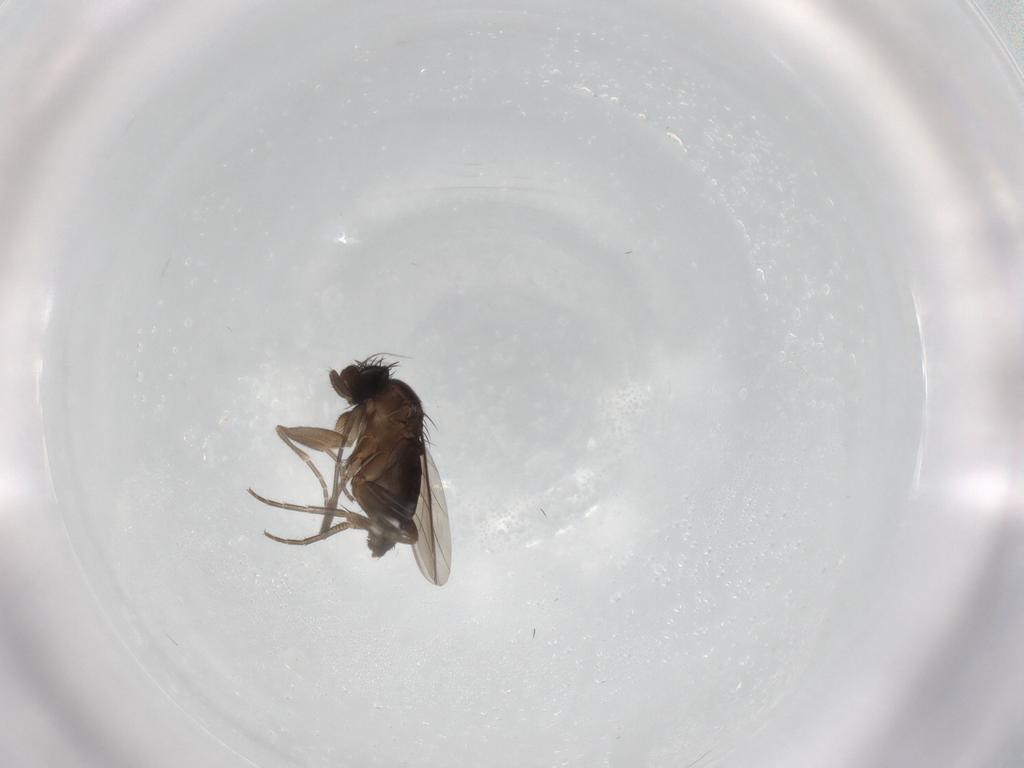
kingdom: Animalia
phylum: Arthropoda
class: Insecta
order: Diptera
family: Phoridae
